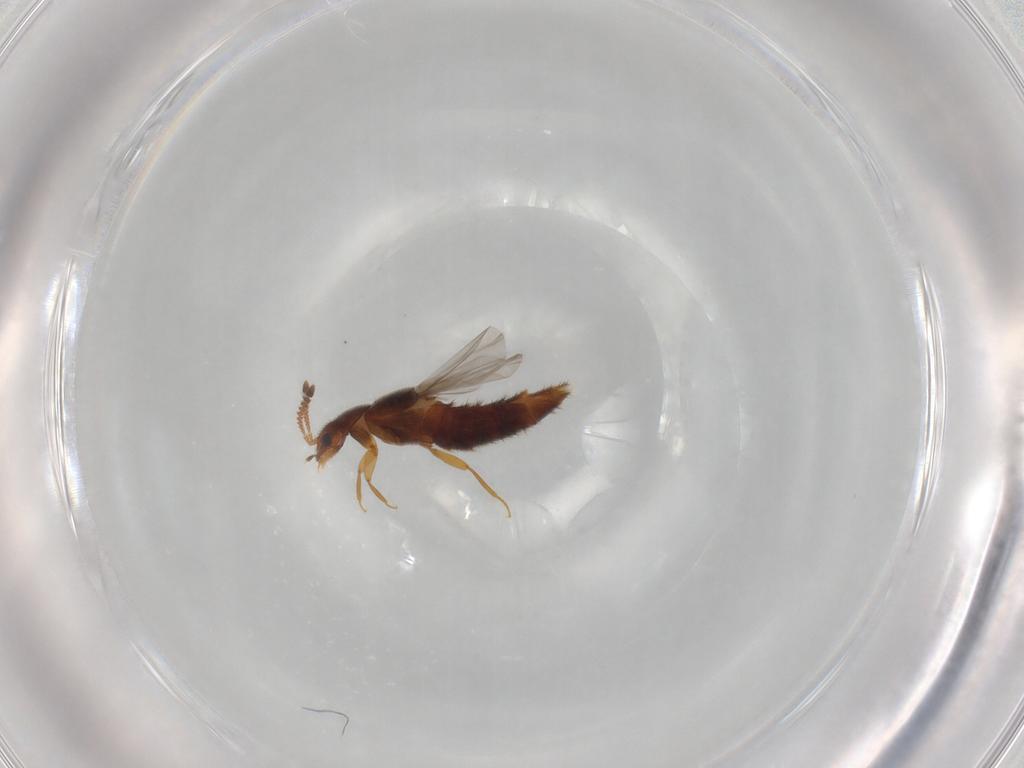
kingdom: Animalia
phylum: Arthropoda
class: Insecta
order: Coleoptera
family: Staphylinidae
